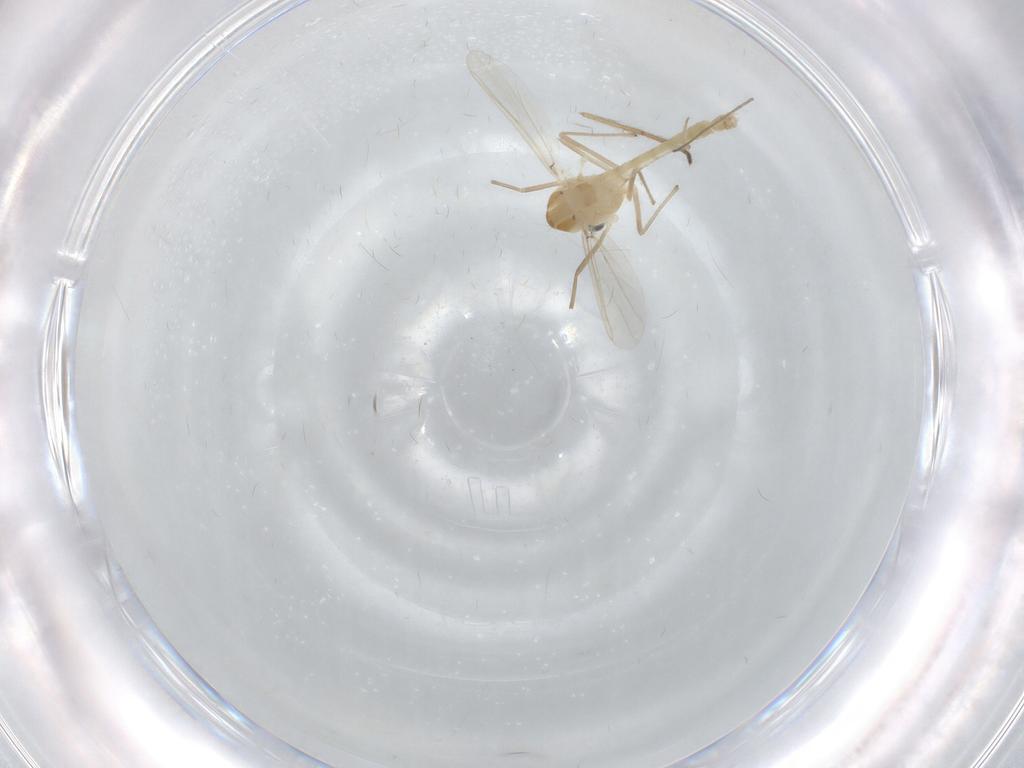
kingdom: Animalia
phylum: Arthropoda
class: Insecta
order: Diptera
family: Chironomidae
